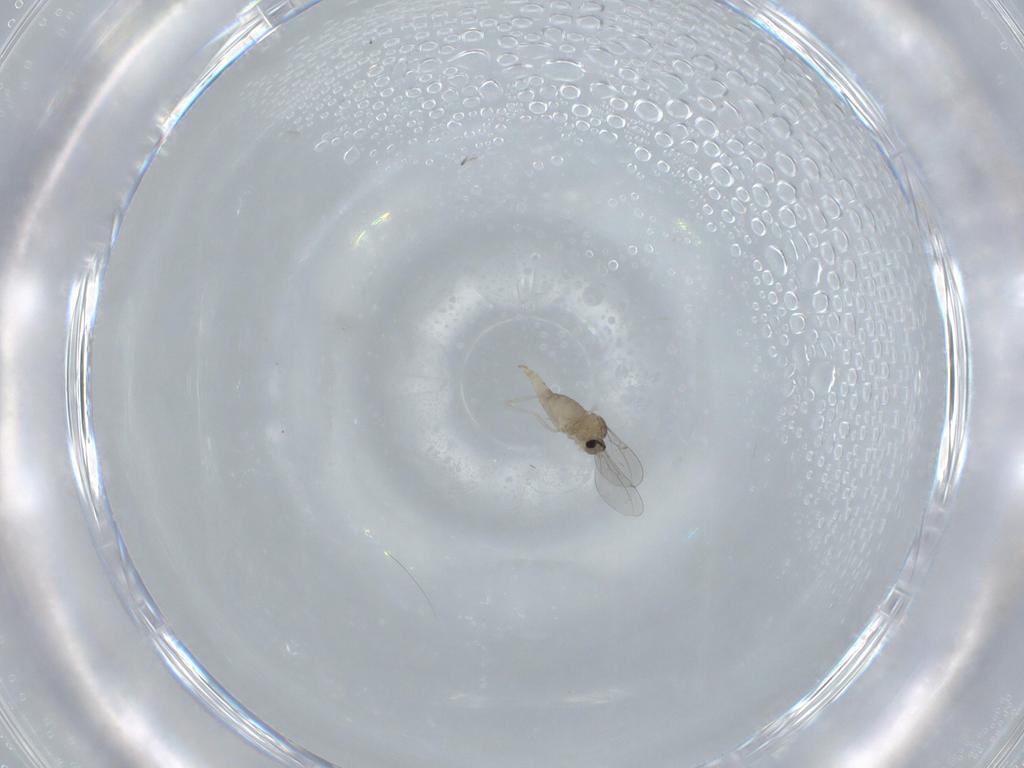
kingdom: Animalia
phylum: Arthropoda
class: Insecta
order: Diptera
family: Cecidomyiidae
